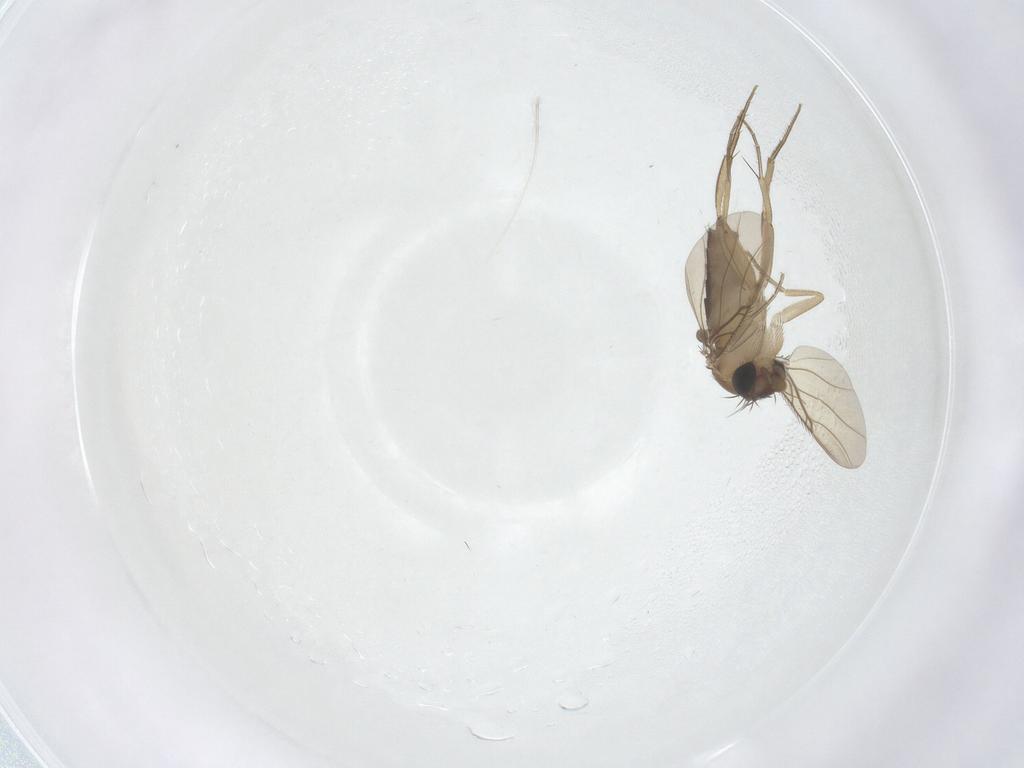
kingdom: Animalia
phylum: Arthropoda
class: Insecta
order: Diptera
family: Phoridae
